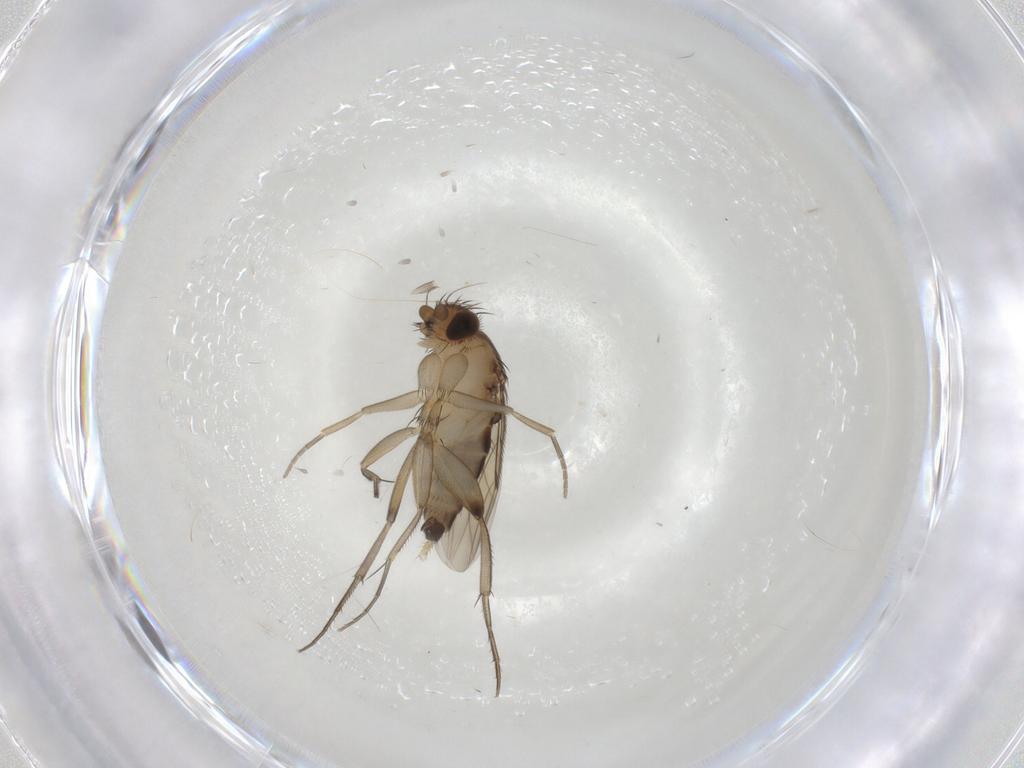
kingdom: Animalia
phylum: Arthropoda
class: Insecta
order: Diptera
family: Phoridae
